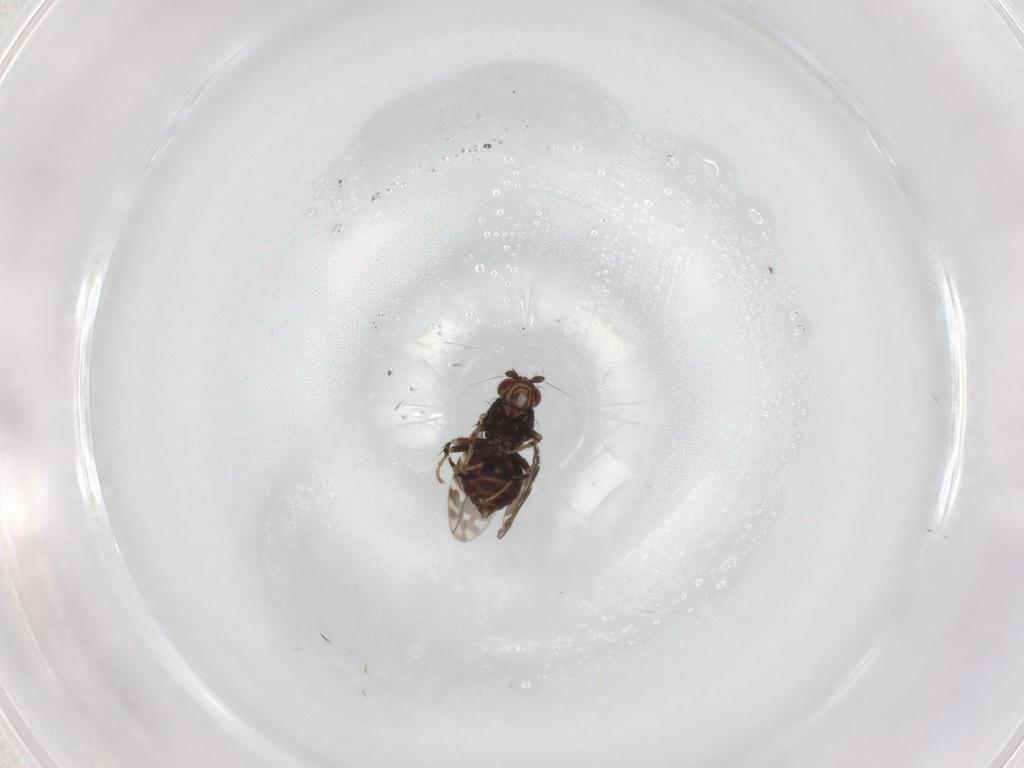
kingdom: Animalia
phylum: Arthropoda
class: Insecta
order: Diptera
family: Sphaeroceridae
